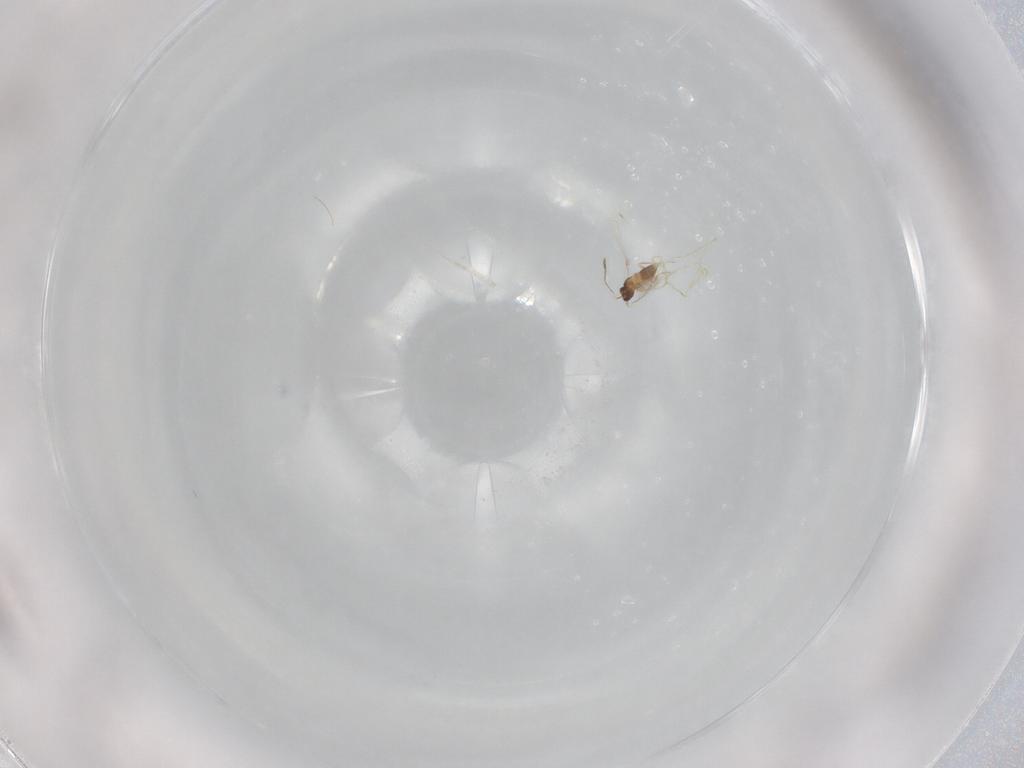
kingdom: Animalia
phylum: Arthropoda
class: Insecta
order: Hymenoptera
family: Mymaridae
